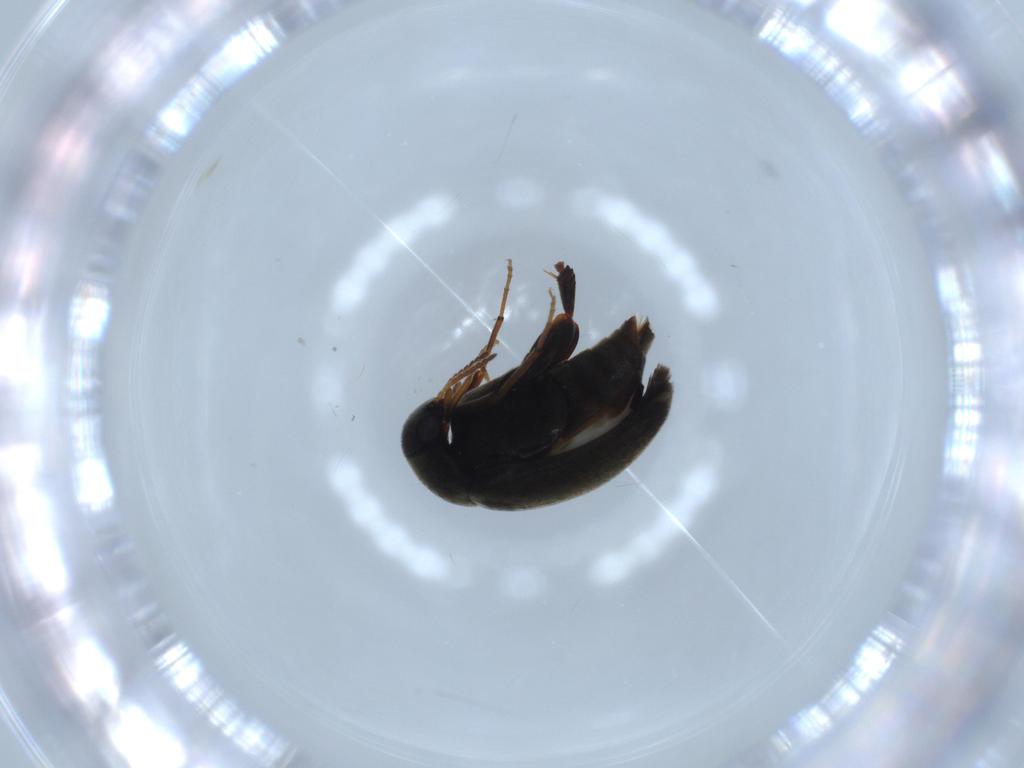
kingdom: Animalia
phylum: Arthropoda
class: Insecta
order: Coleoptera
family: Mordellidae
